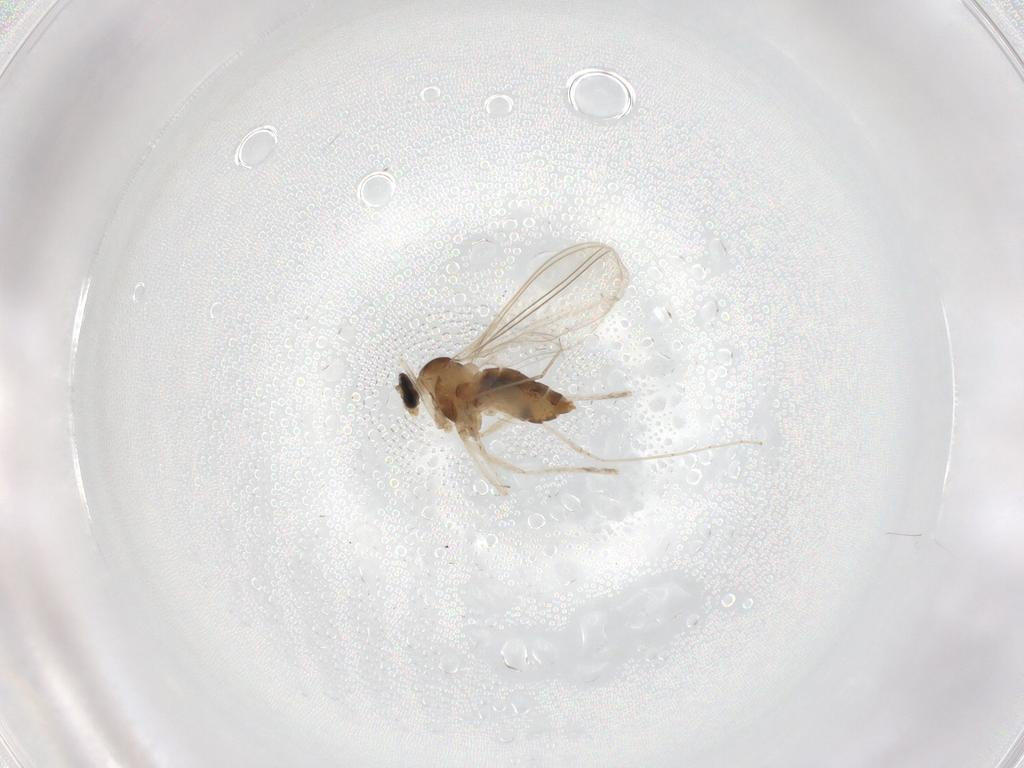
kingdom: Animalia
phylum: Arthropoda
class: Insecta
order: Diptera
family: Cecidomyiidae
